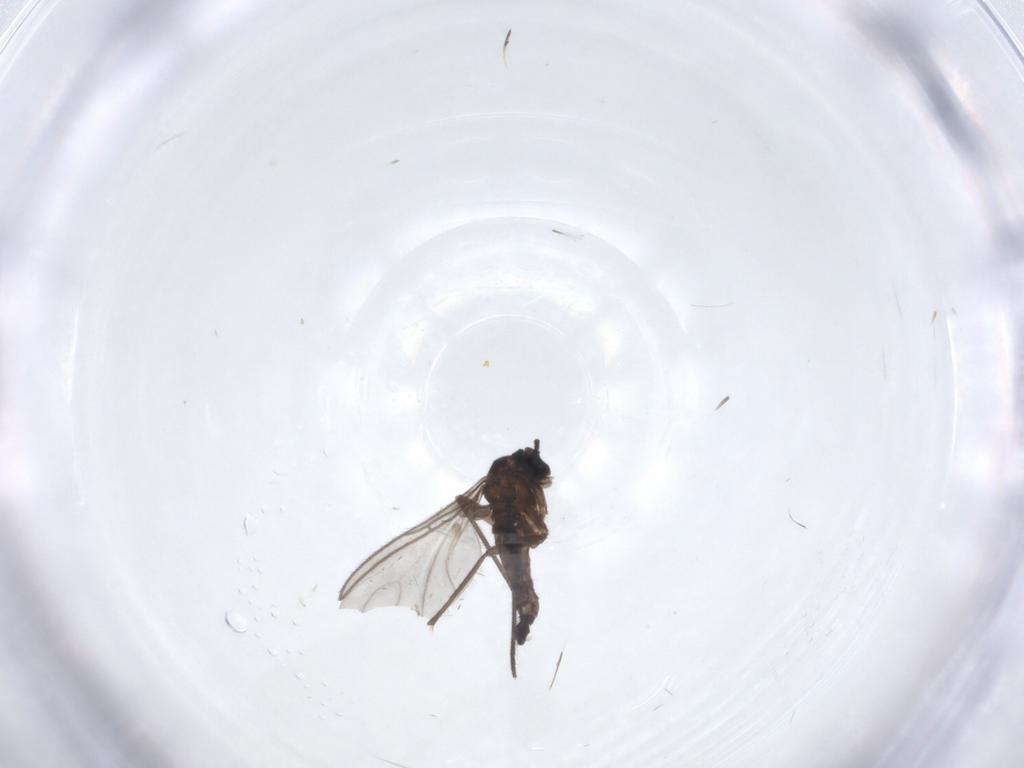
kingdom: Animalia
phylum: Arthropoda
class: Insecta
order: Diptera
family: Sciaridae
